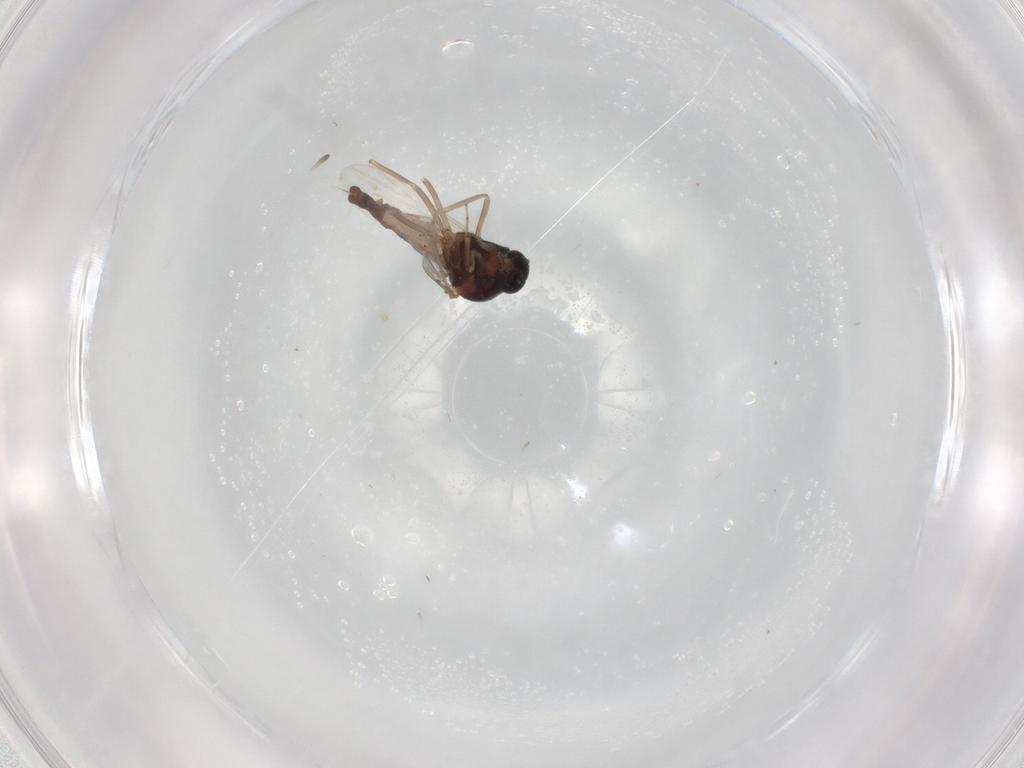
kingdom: Animalia
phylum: Arthropoda
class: Insecta
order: Diptera
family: Ceratopogonidae
